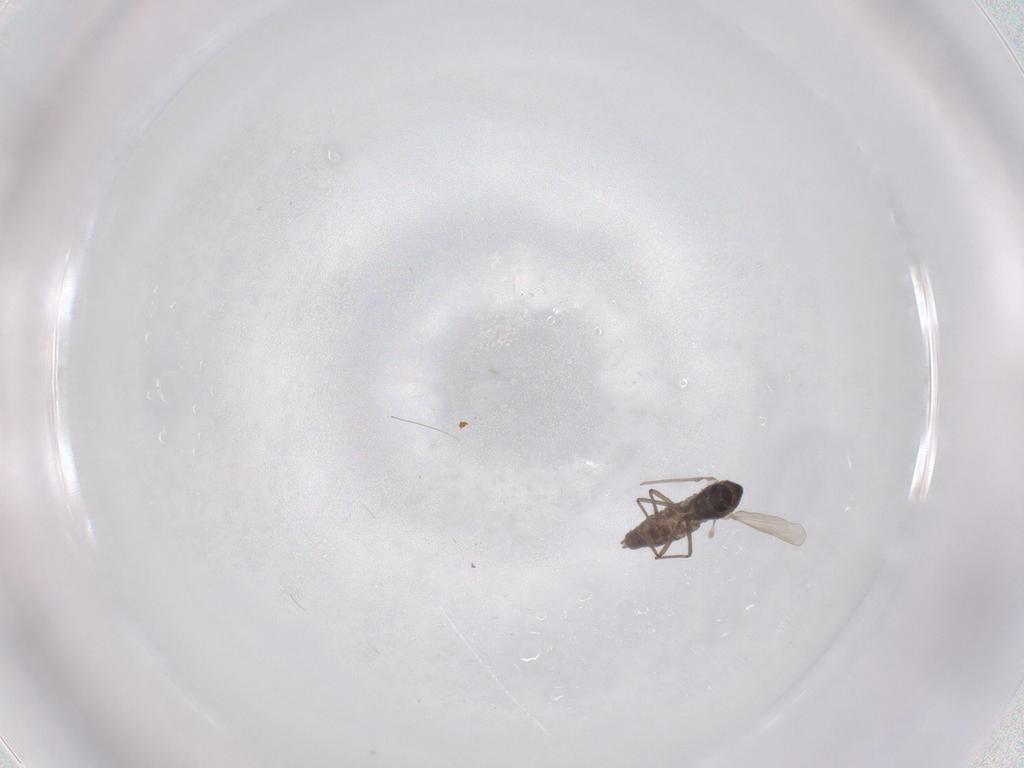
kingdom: Animalia
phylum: Arthropoda
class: Insecta
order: Diptera
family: Chironomidae
